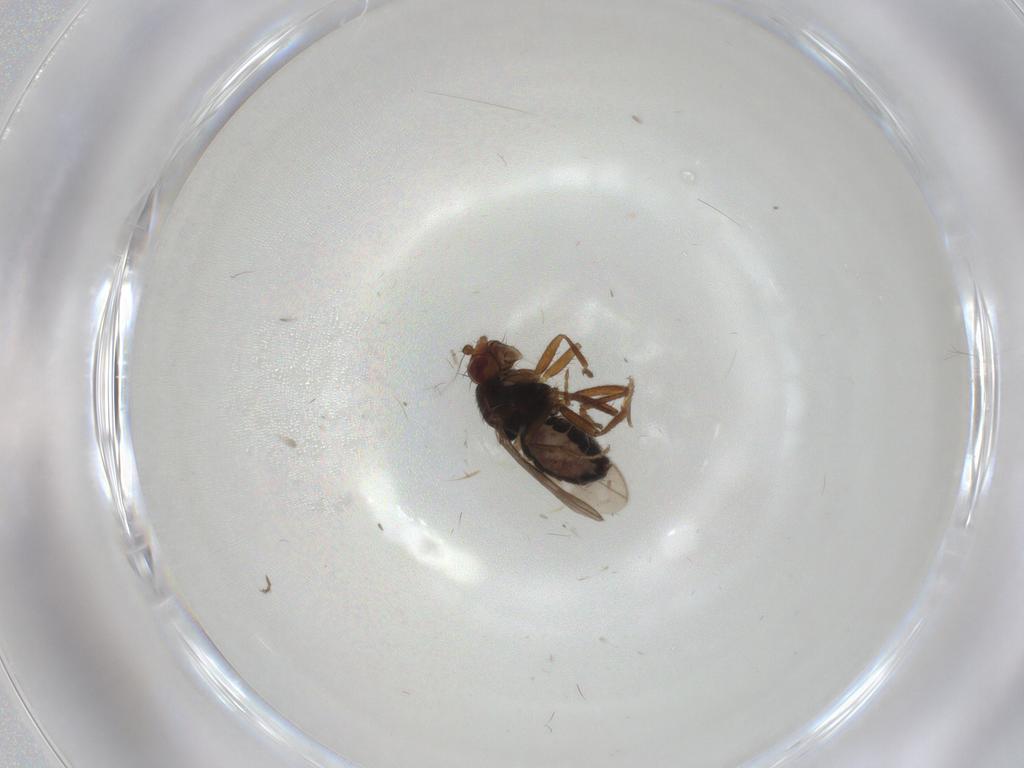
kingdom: Animalia
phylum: Arthropoda
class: Insecta
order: Diptera
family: Sphaeroceridae
